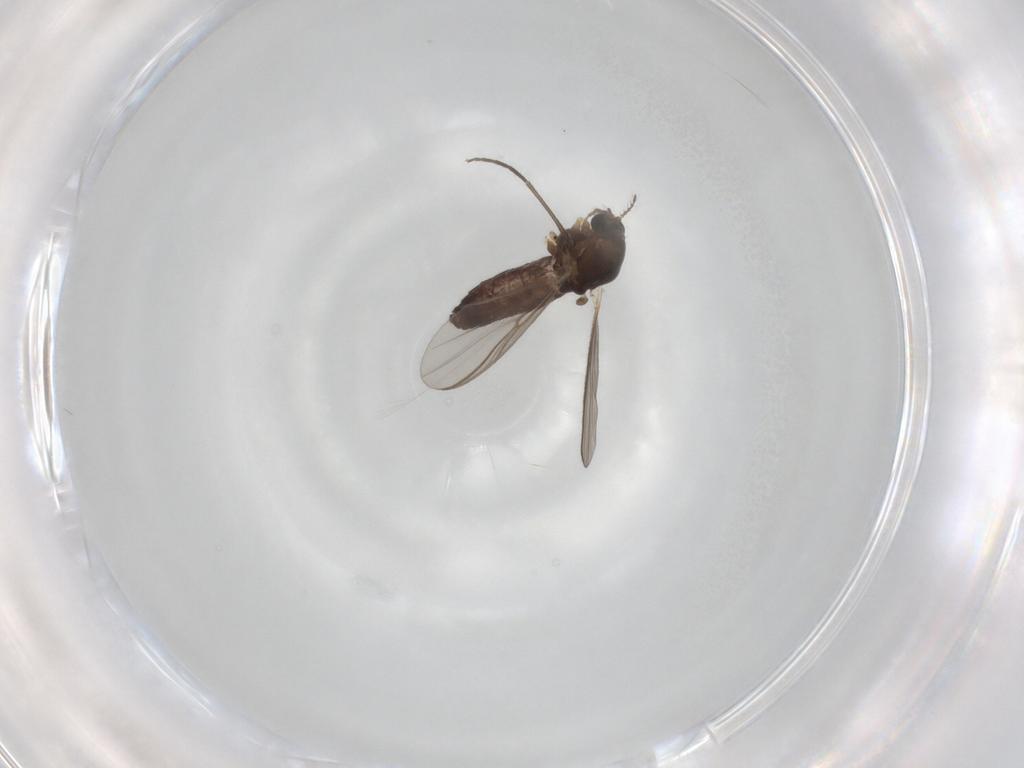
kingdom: Animalia
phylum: Arthropoda
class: Insecta
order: Diptera
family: Chironomidae
